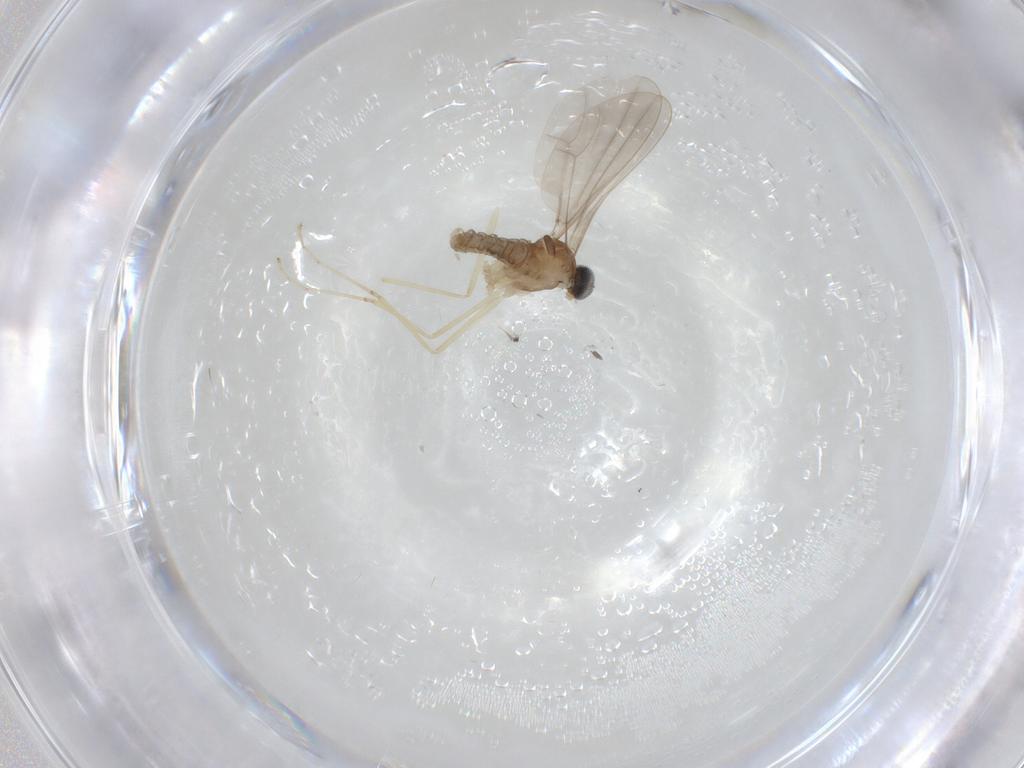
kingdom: Animalia
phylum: Arthropoda
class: Insecta
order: Diptera
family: Cecidomyiidae
